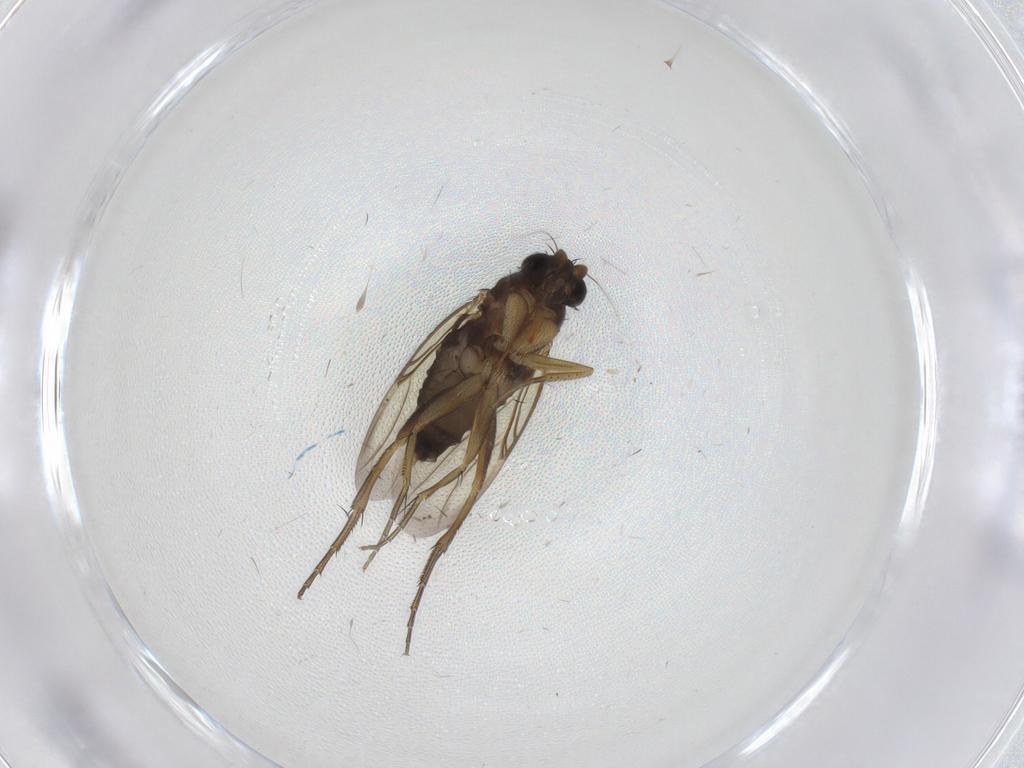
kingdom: Animalia
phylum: Arthropoda
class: Insecta
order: Diptera
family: Phoridae
